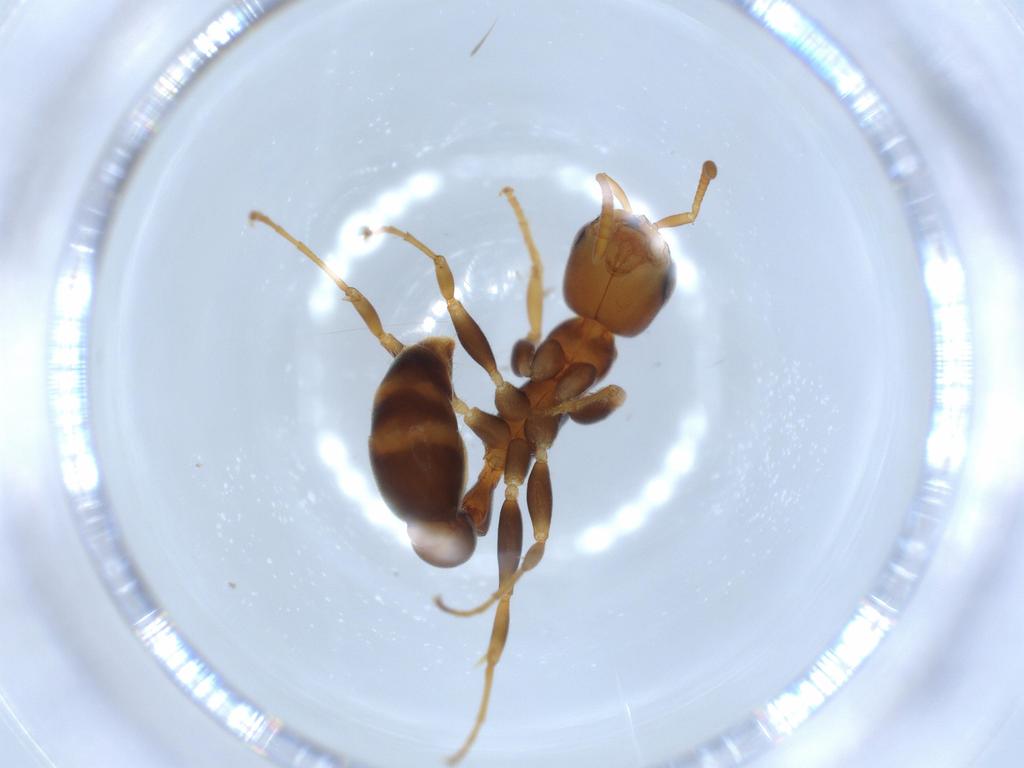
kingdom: Animalia
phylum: Arthropoda
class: Insecta
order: Hymenoptera
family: Formicidae
